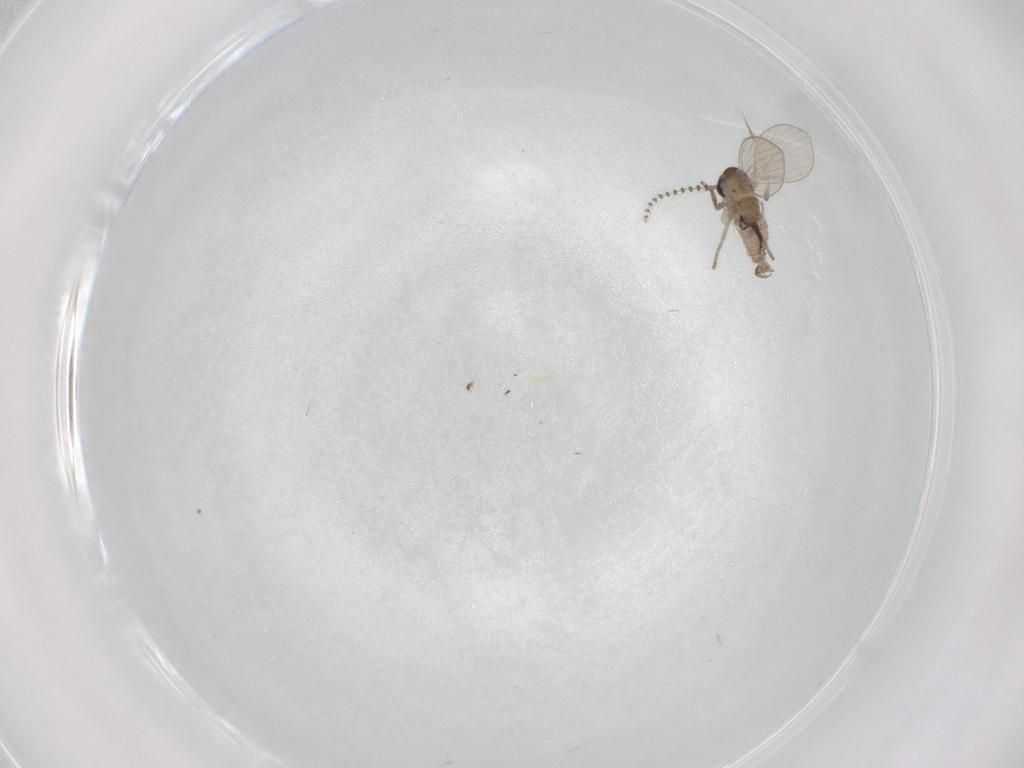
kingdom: Animalia
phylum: Arthropoda
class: Insecta
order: Diptera
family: Psychodidae
